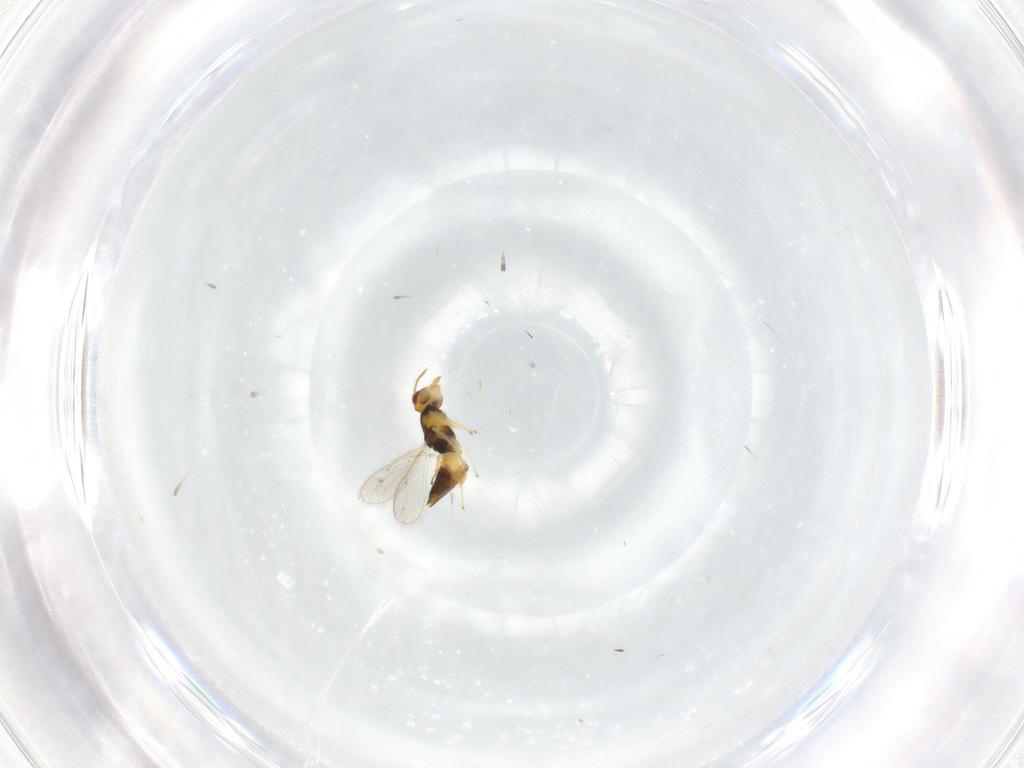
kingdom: Animalia
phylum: Arthropoda
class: Insecta
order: Hymenoptera
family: Eulophidae
